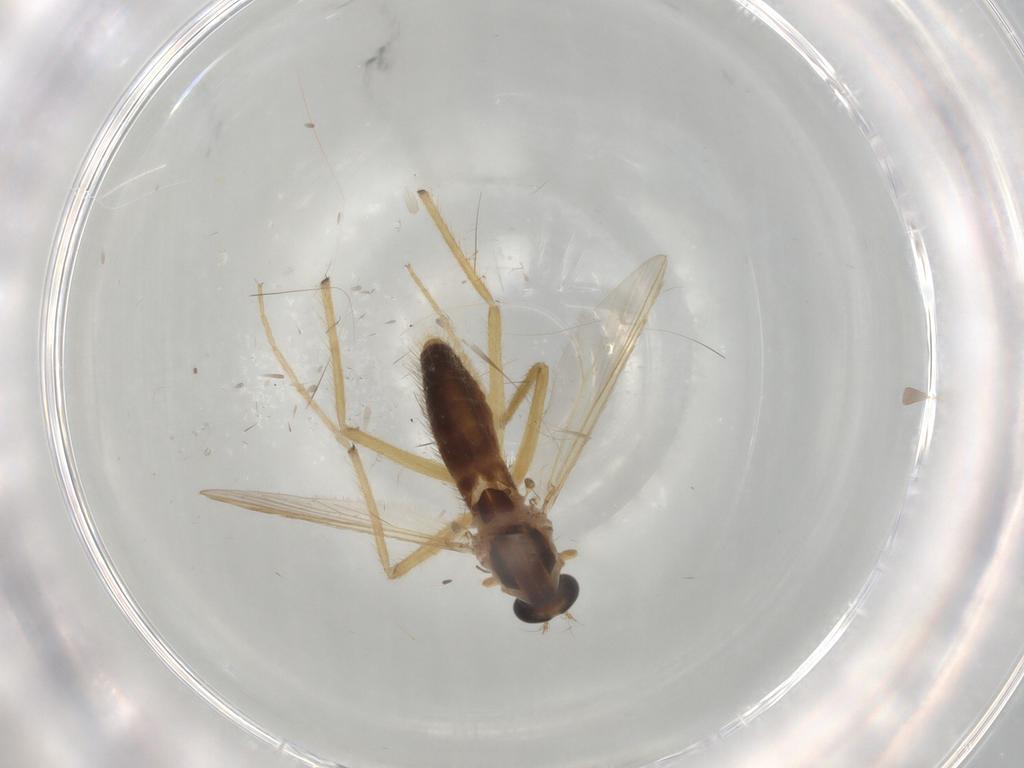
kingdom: Animalia
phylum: Arthropoda
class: Insecta
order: Diptera
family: Chironomidae
